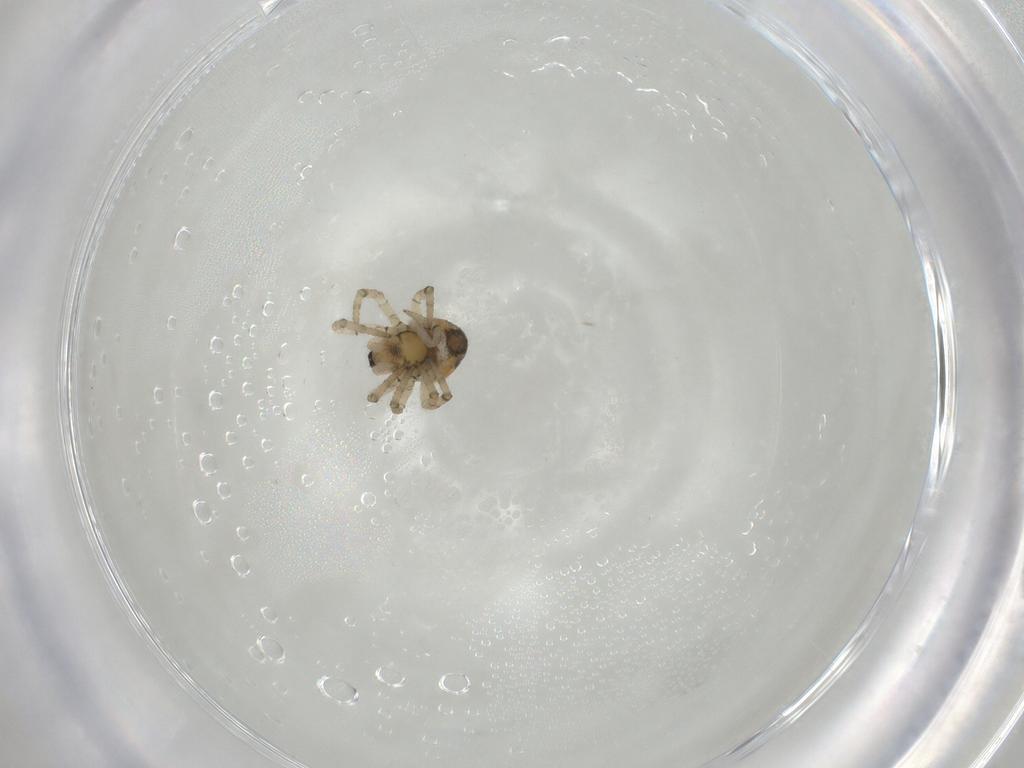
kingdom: Animalia
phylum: Arthropoda
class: Arachnida
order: Araneae
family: Theridiidae
